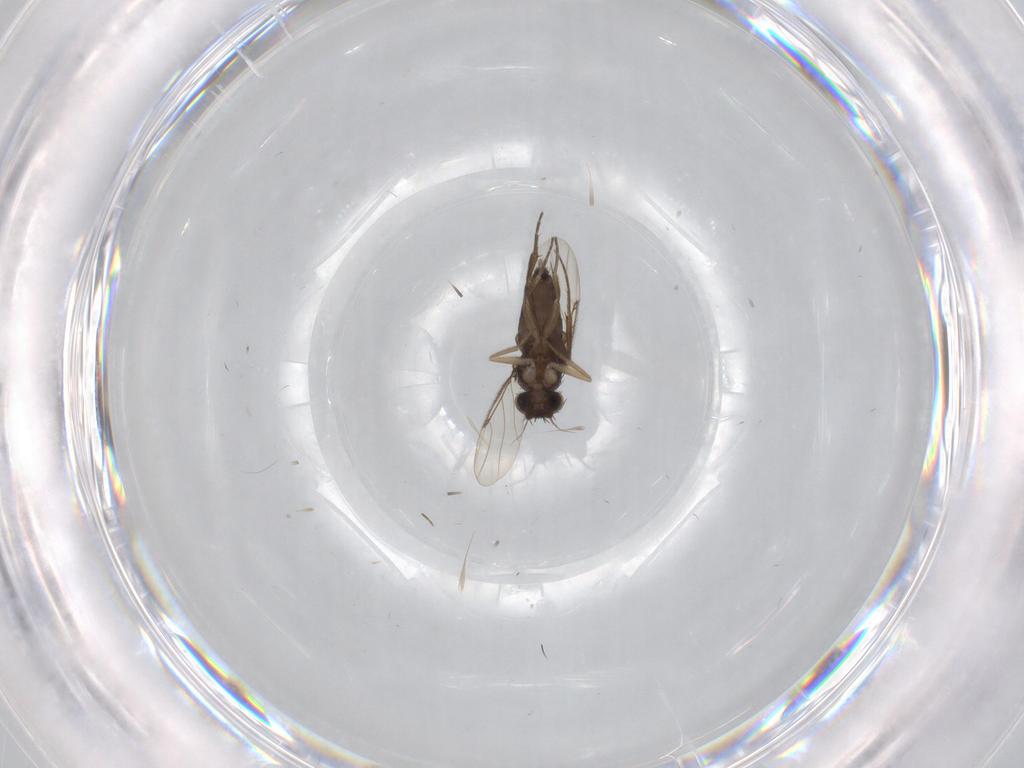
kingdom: Animalia
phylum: Arthropoda
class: Insecta
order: Diptera
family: Phoridae
